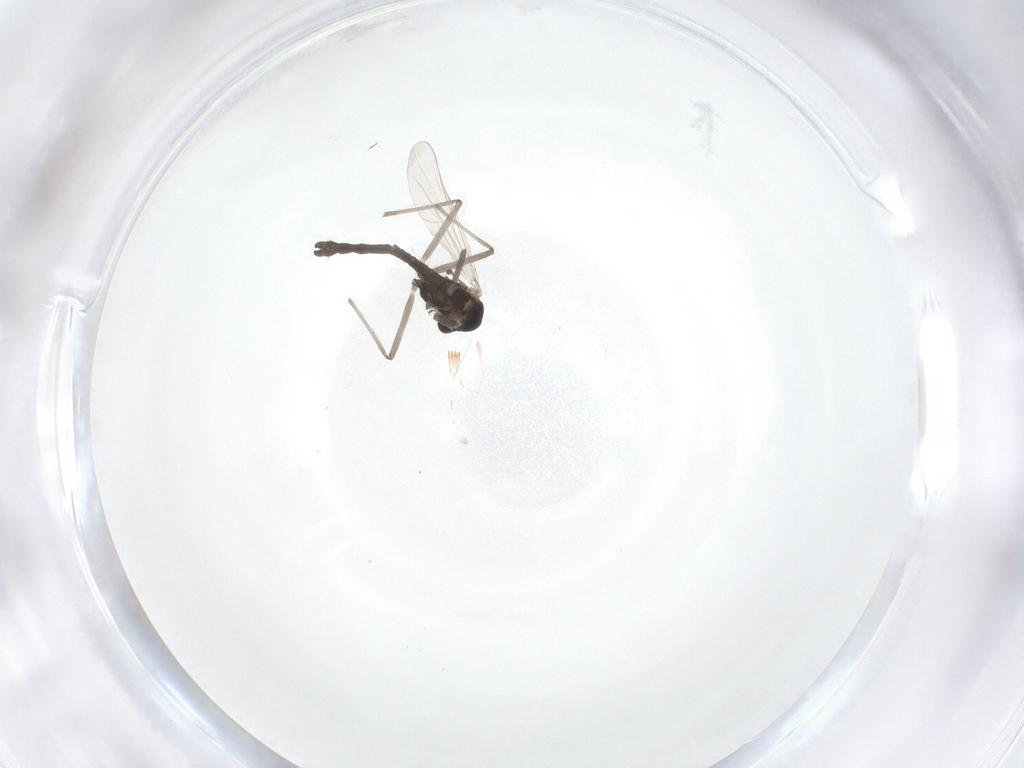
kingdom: Animalia
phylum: Arthropoda
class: Insecta
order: Diptera
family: Chironomidae
